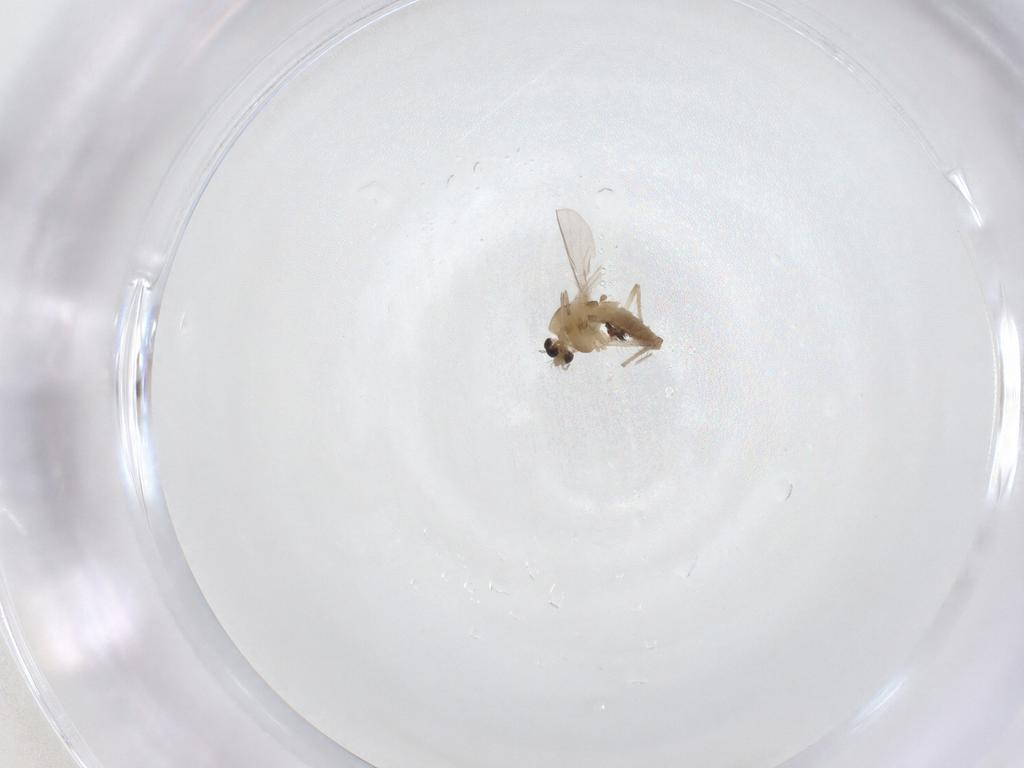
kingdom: Animalia
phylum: Arthropoda
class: Insecta
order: Diptera
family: Chironomidae
